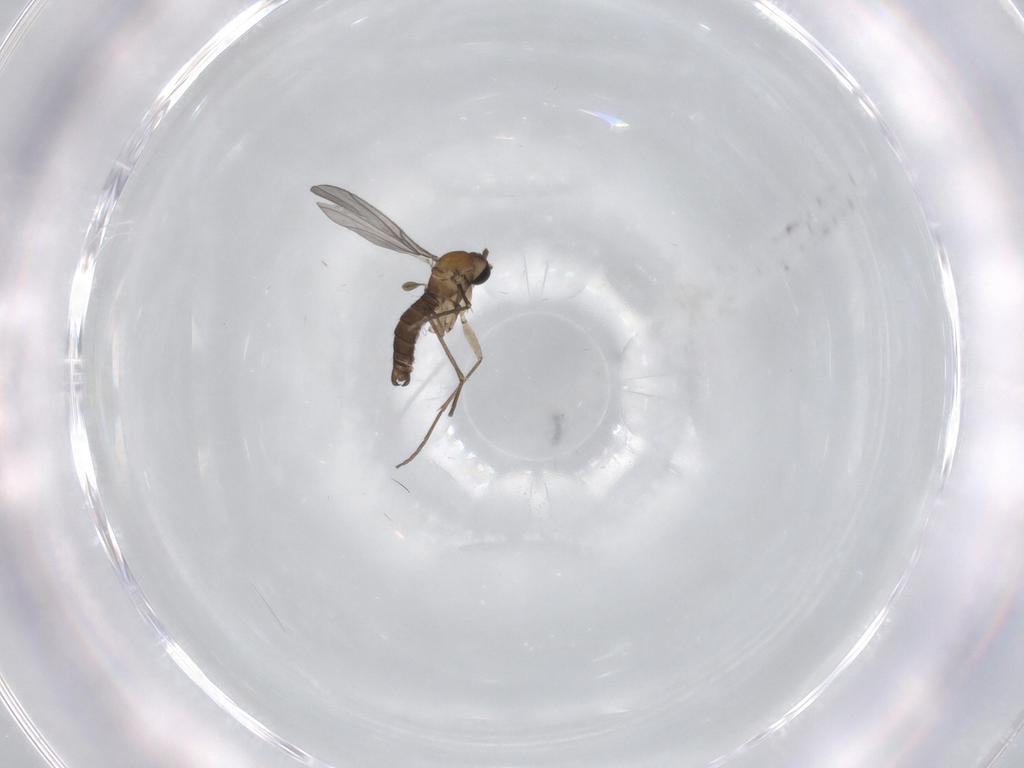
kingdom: Animalia
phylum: Arthropoda
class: Insecta
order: Diptera
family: Sciaridae
